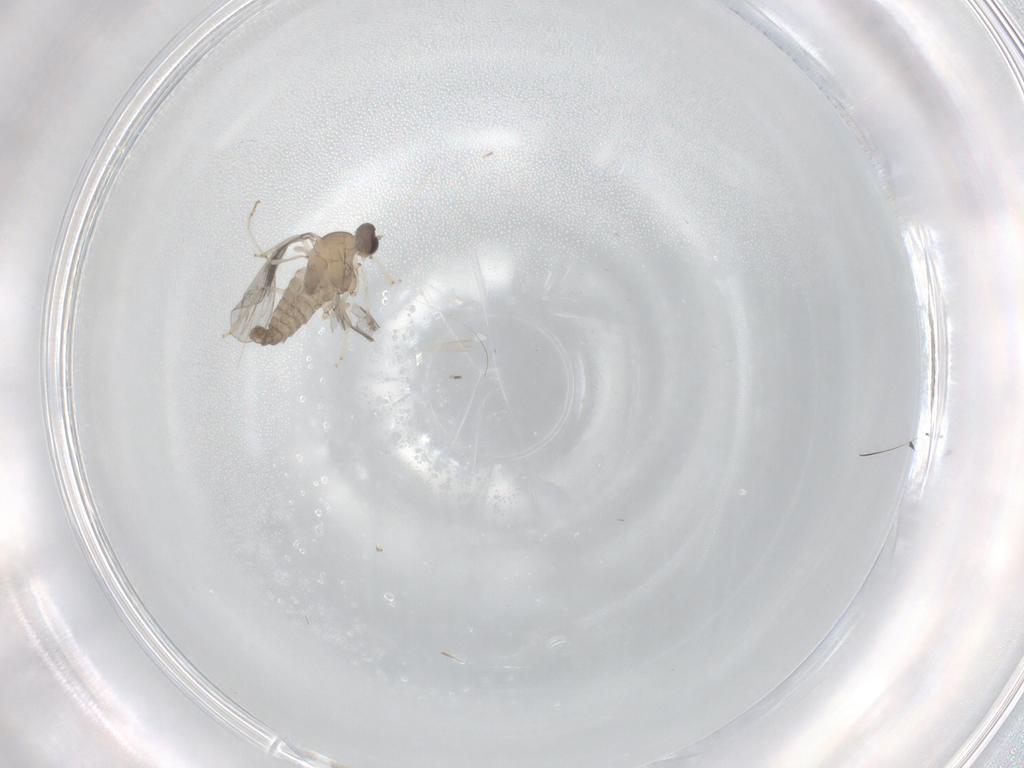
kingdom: Animalia
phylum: Arthropoda
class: Insecta
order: Diptera
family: Cecidomyiidae
